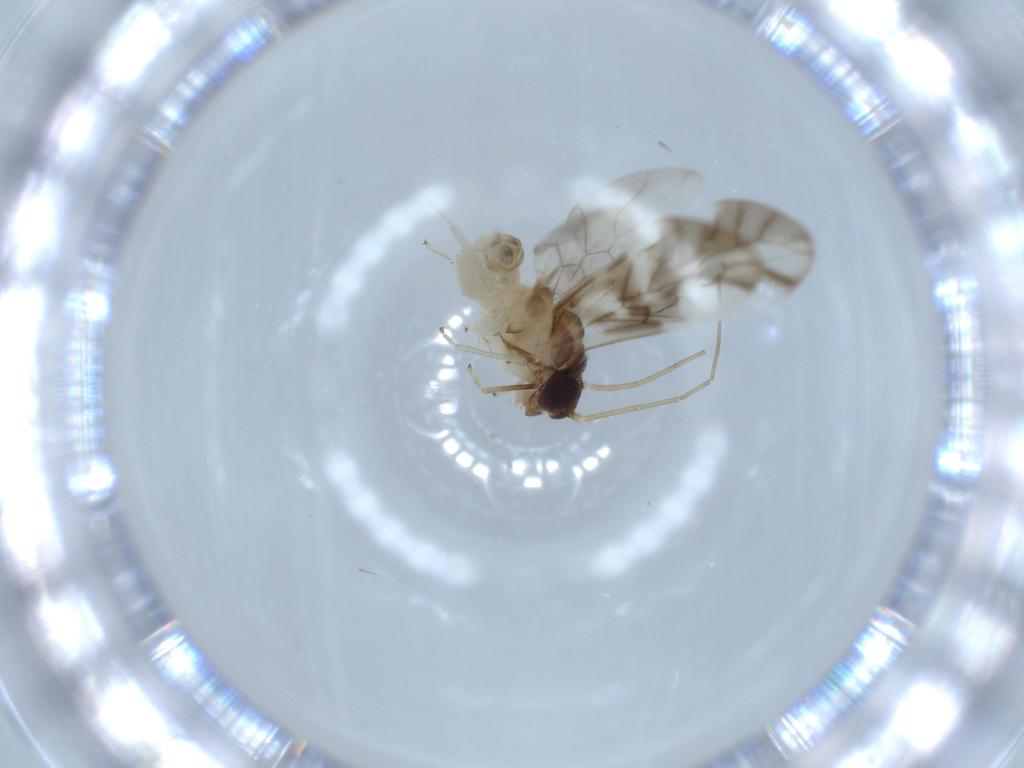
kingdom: Animalia
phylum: Arthropoda
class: Insecta
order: Psocodea
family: Caeciliusidae
